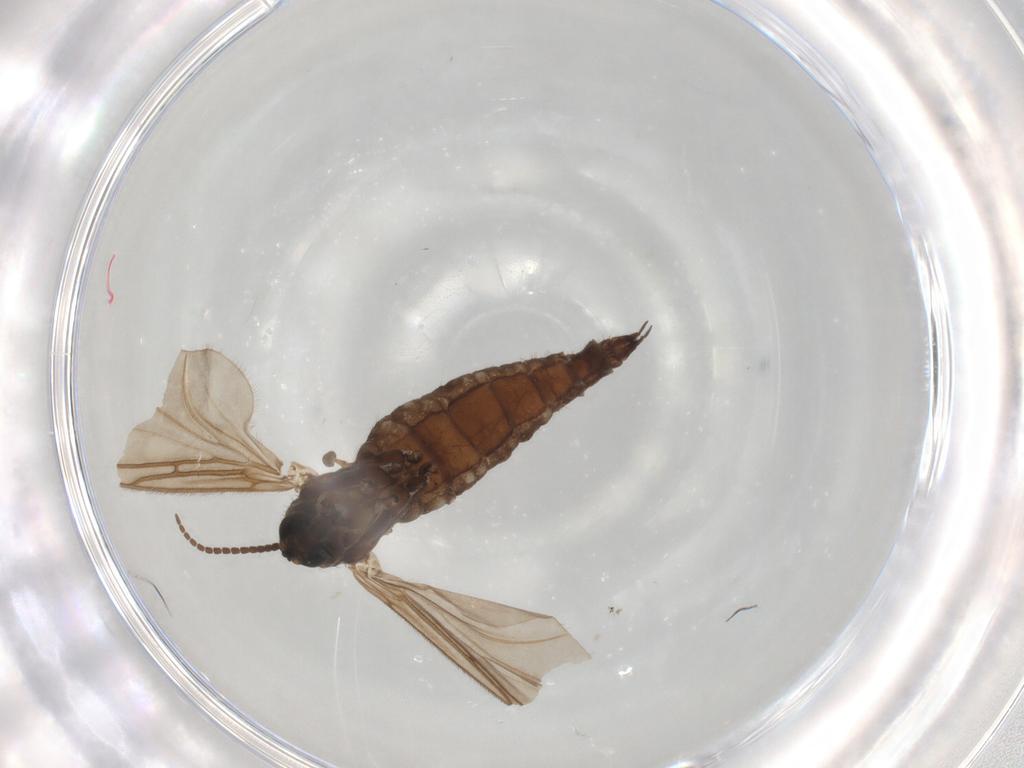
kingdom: Animalia
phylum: Arthropoda
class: Insecta
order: Diptera
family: Sciaridae
